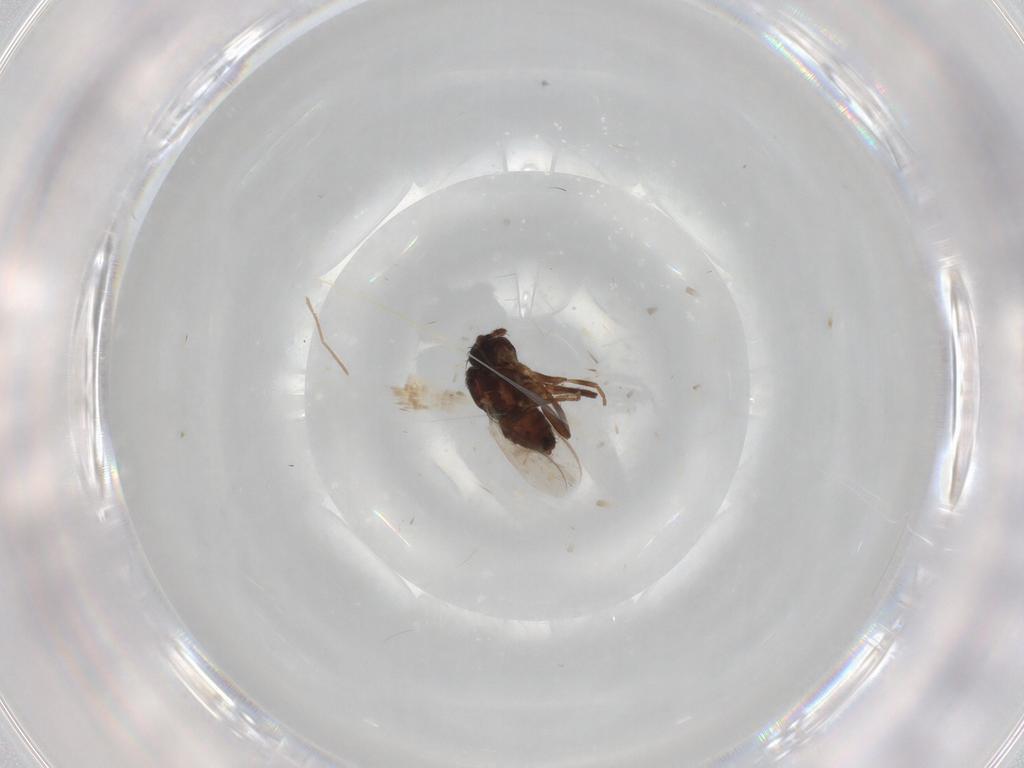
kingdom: Animalia
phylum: Arthropoda
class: Insecta
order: Diptera
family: Sphaeroceridae
